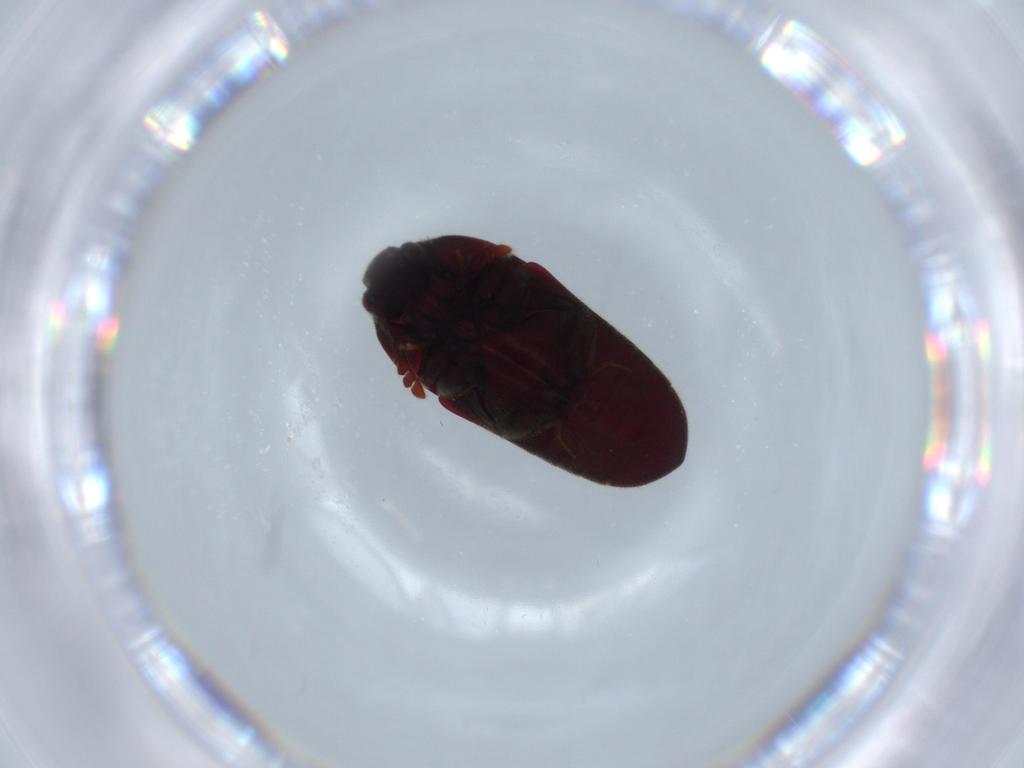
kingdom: Animalia
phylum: Arthropoda
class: Insecta
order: Coleoptera
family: Throscidae
